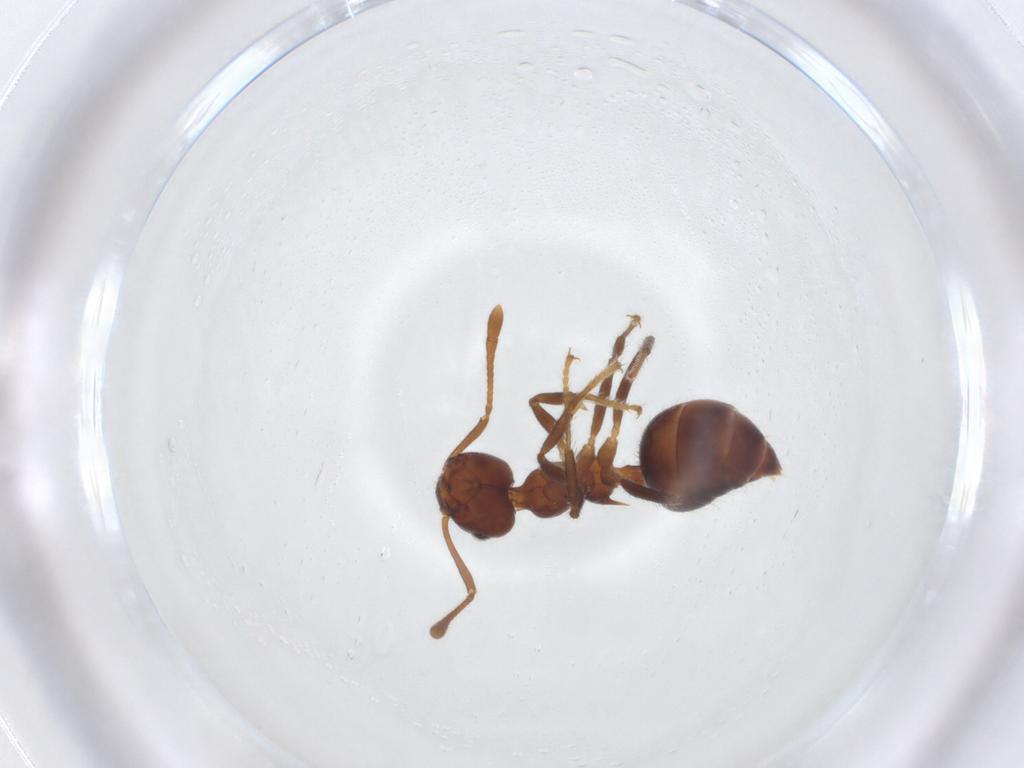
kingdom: Animalia
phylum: Arthropoda
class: Insecta
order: Hymenoptera
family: Formicidae
